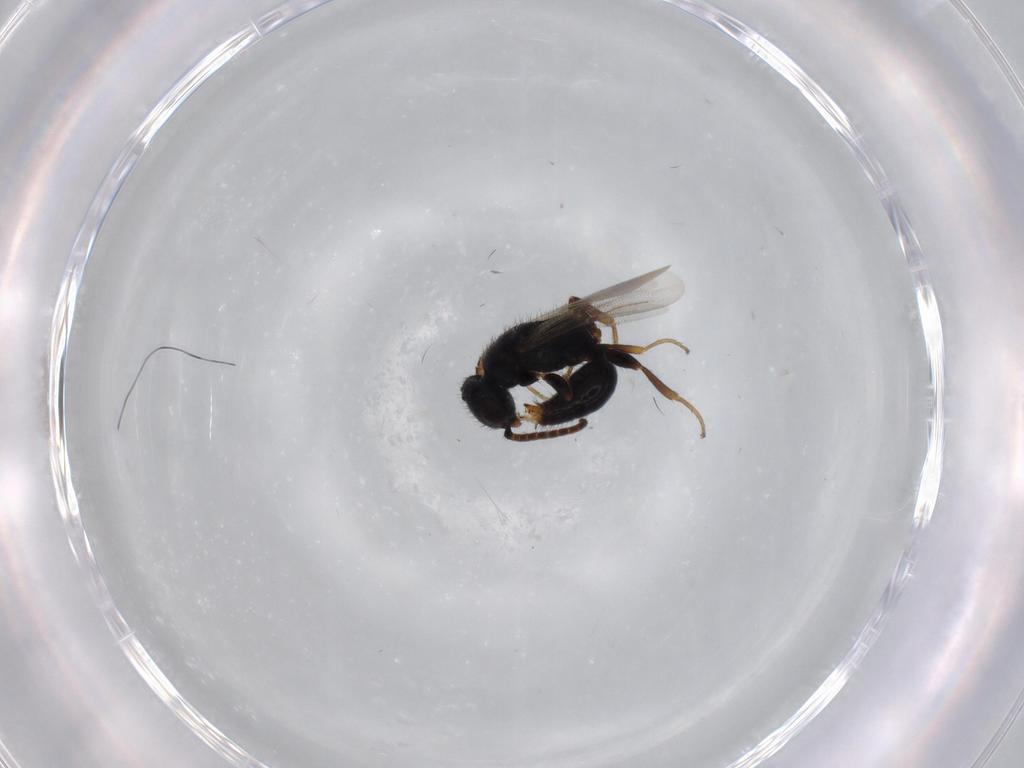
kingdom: Animalia
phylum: Arthropoda
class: Insecta
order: Hymenoptera
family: Bethylidae
